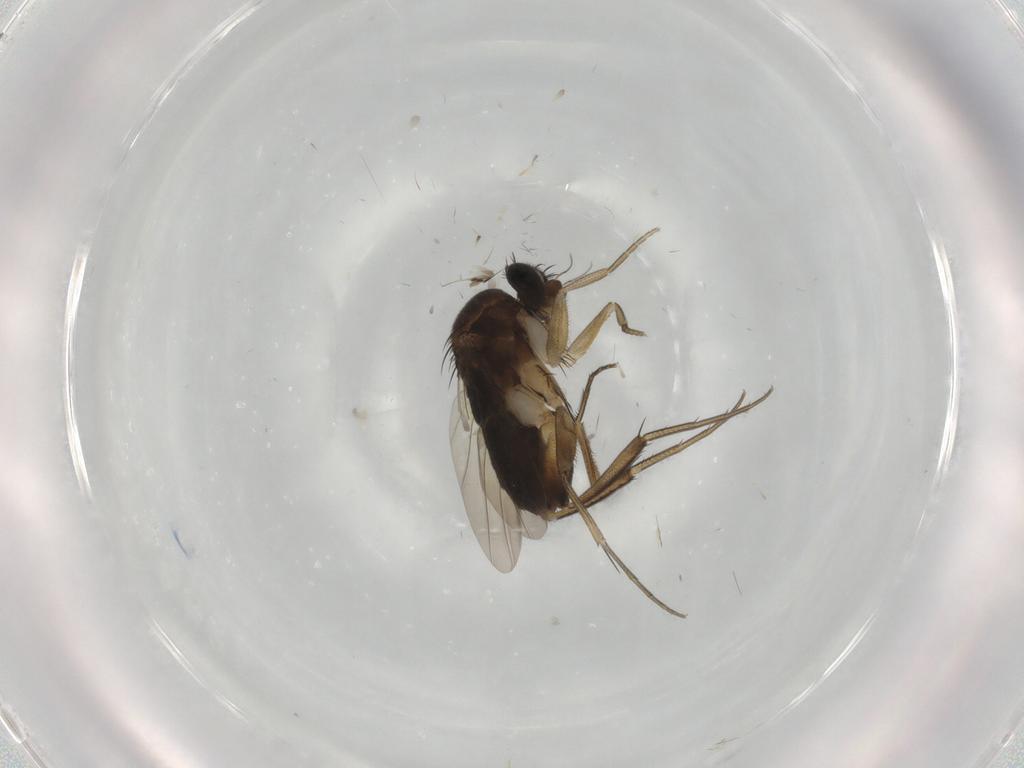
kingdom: Animalia
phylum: Arthropoda
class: Insecta
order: Diptera
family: Phoridae
